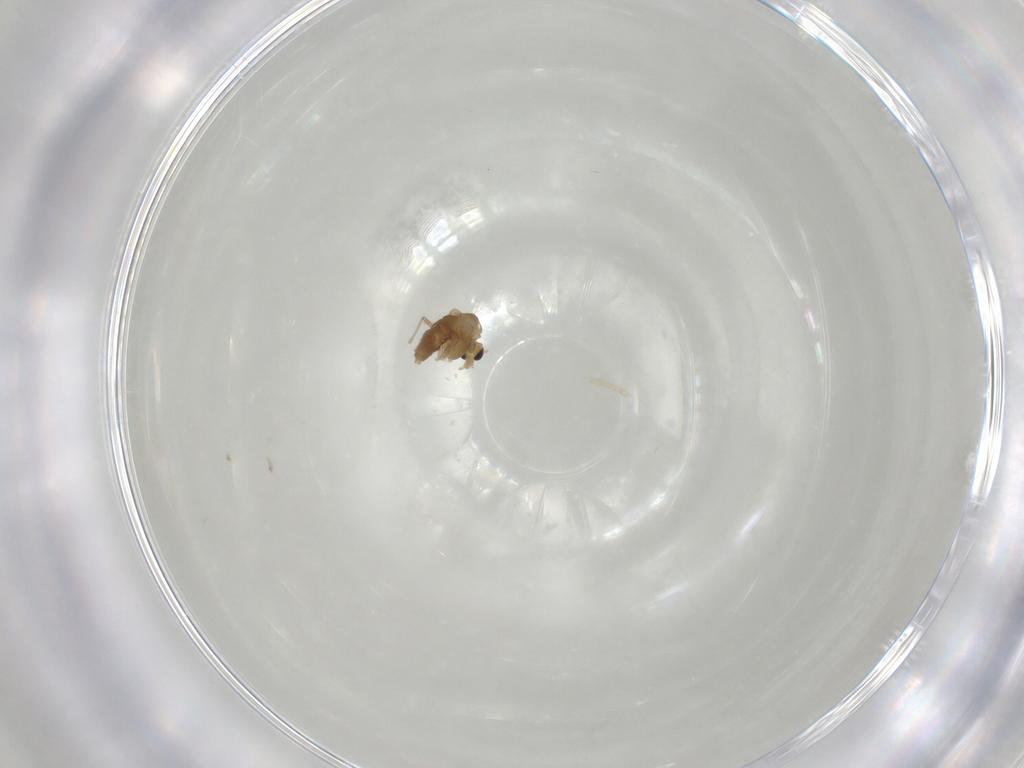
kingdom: Animalia
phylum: Arthropoda
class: Insecta
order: Diptera
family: Chironomidae
